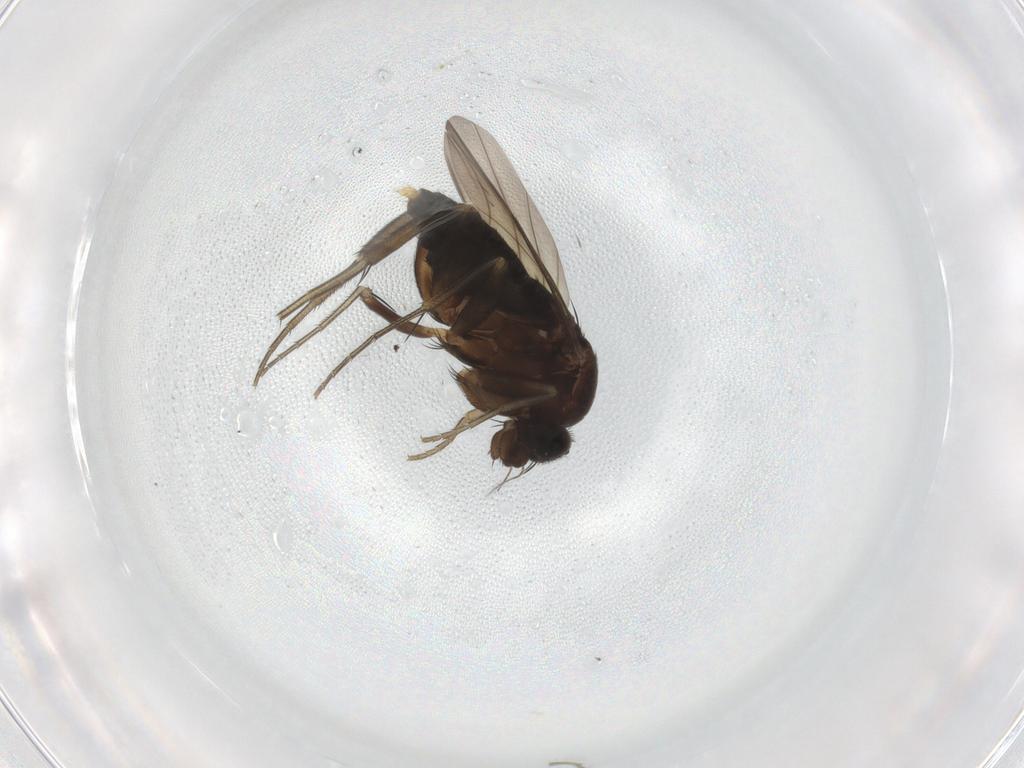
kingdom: Animalia
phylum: Arthropoda
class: Insecta
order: Diptera
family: Phoridae
